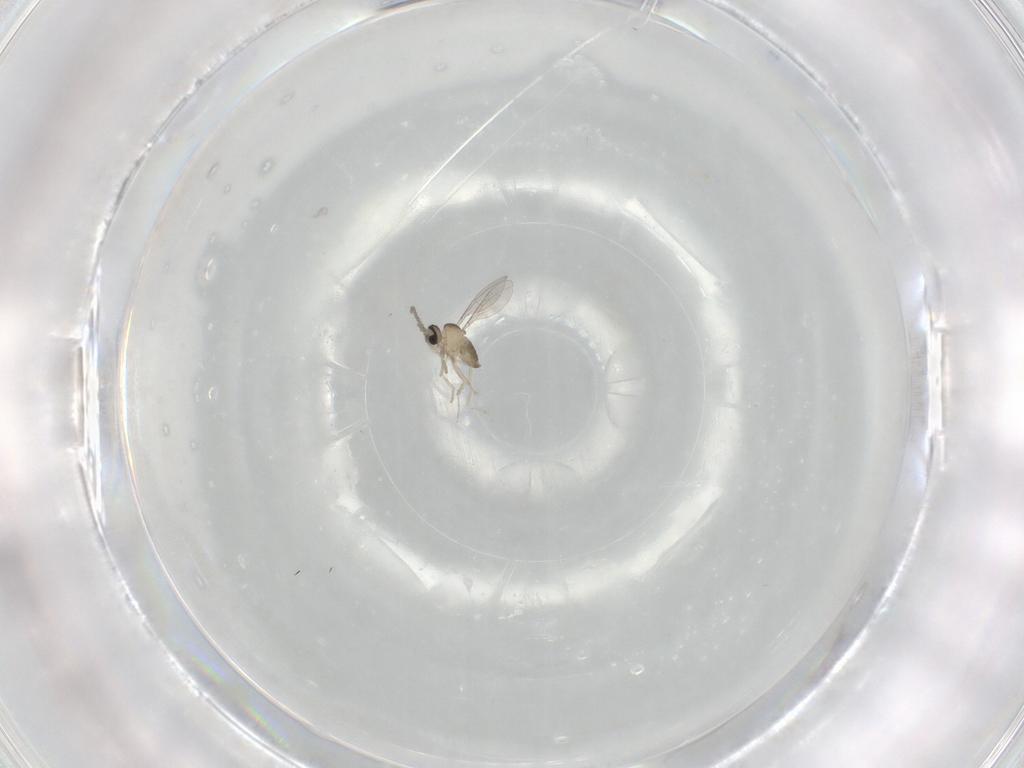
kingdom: Animalia
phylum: Arthropoda
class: Insecta
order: Diptera
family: Cecidomyiidae
